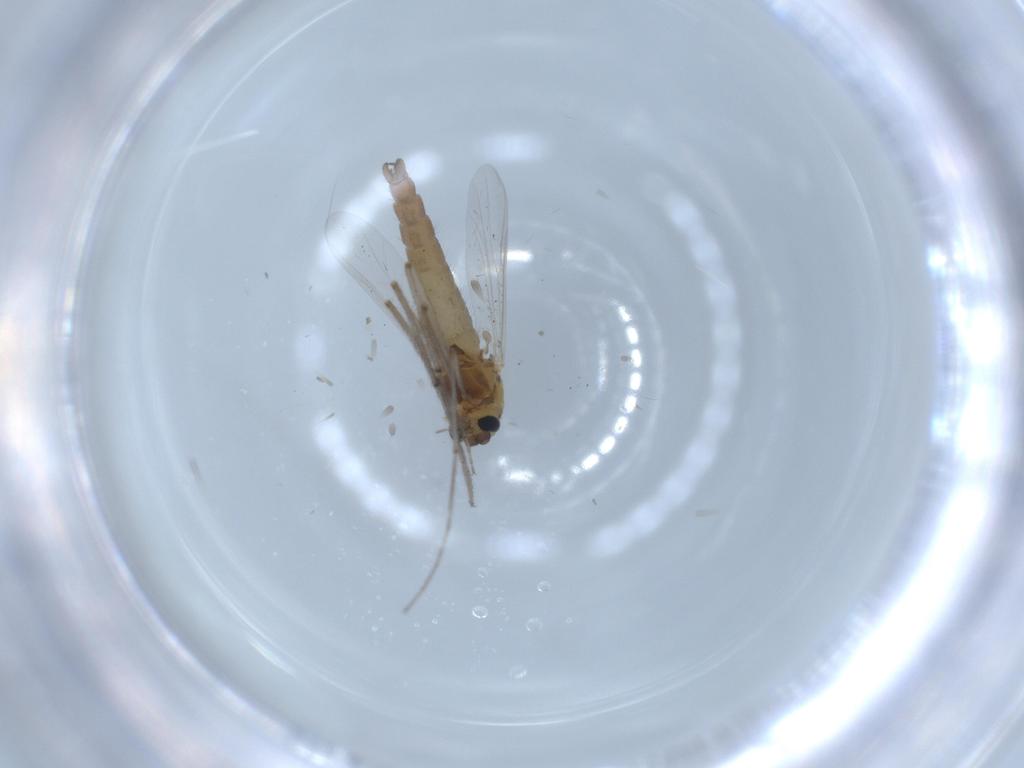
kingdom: Animalia
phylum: Arthropoda
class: Insecta
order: Diptera
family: Chironomidae
